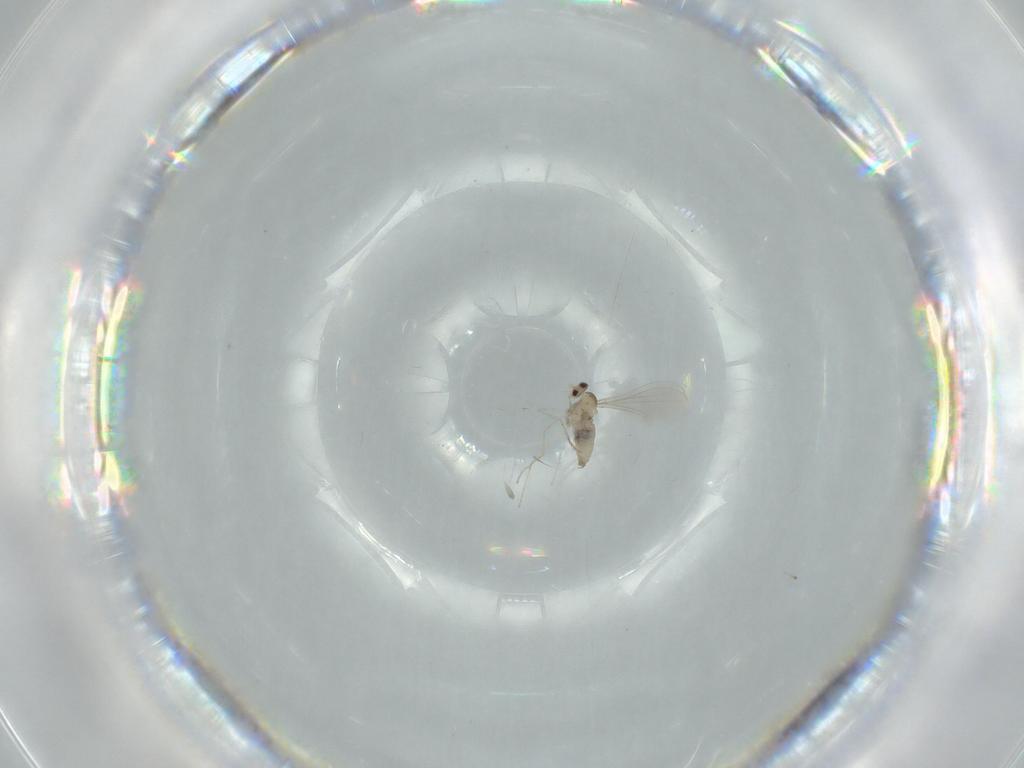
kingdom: Animalia
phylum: Arthropoda
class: Insecta
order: Diptera
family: Cecidomyiidae
